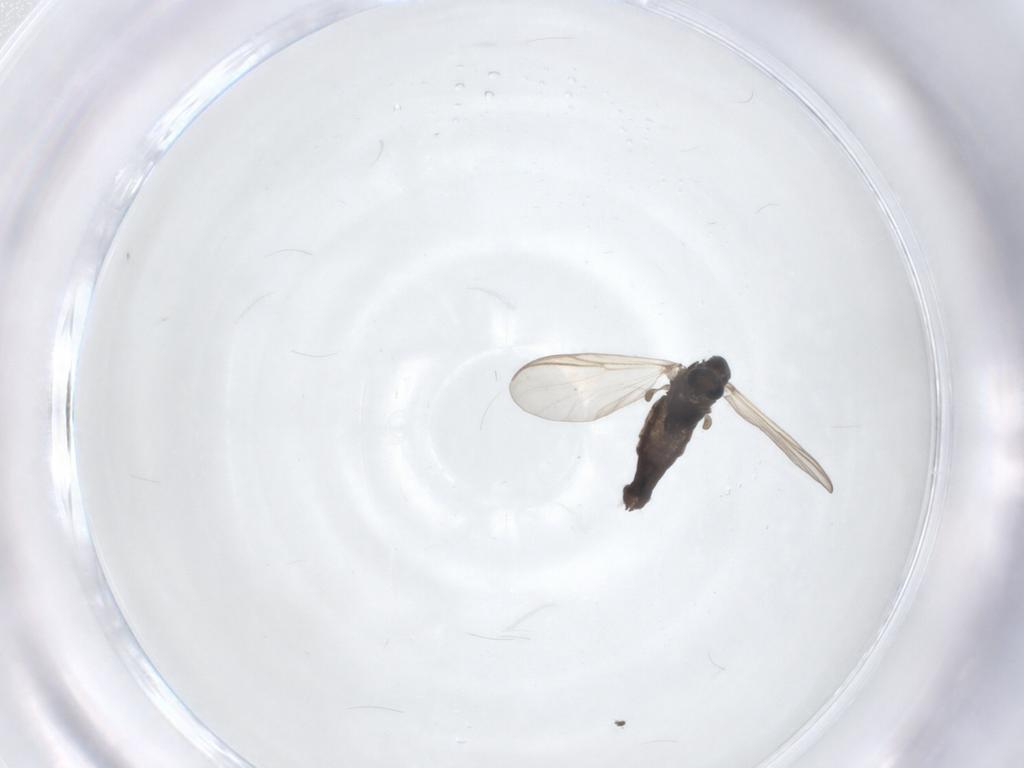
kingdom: Animalia
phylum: Arthropoda
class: Insecta
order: Diptera
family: Chironomidae
